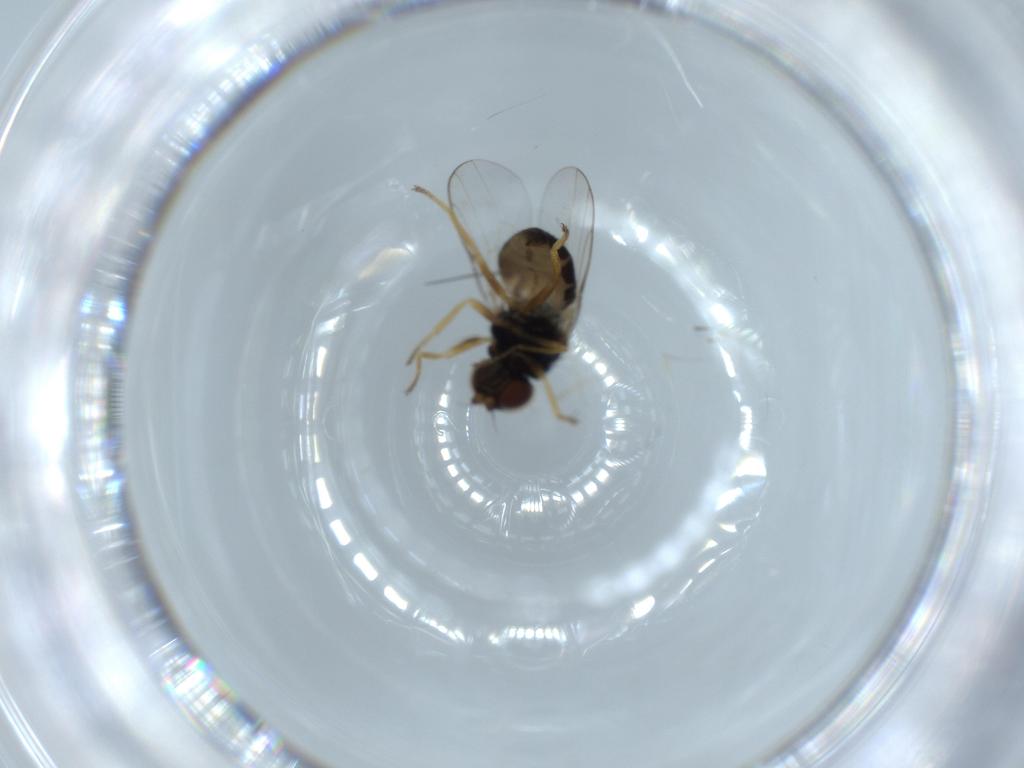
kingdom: Animalia
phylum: Arthropoda
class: Insecta
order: Diptera
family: Chloropidae
